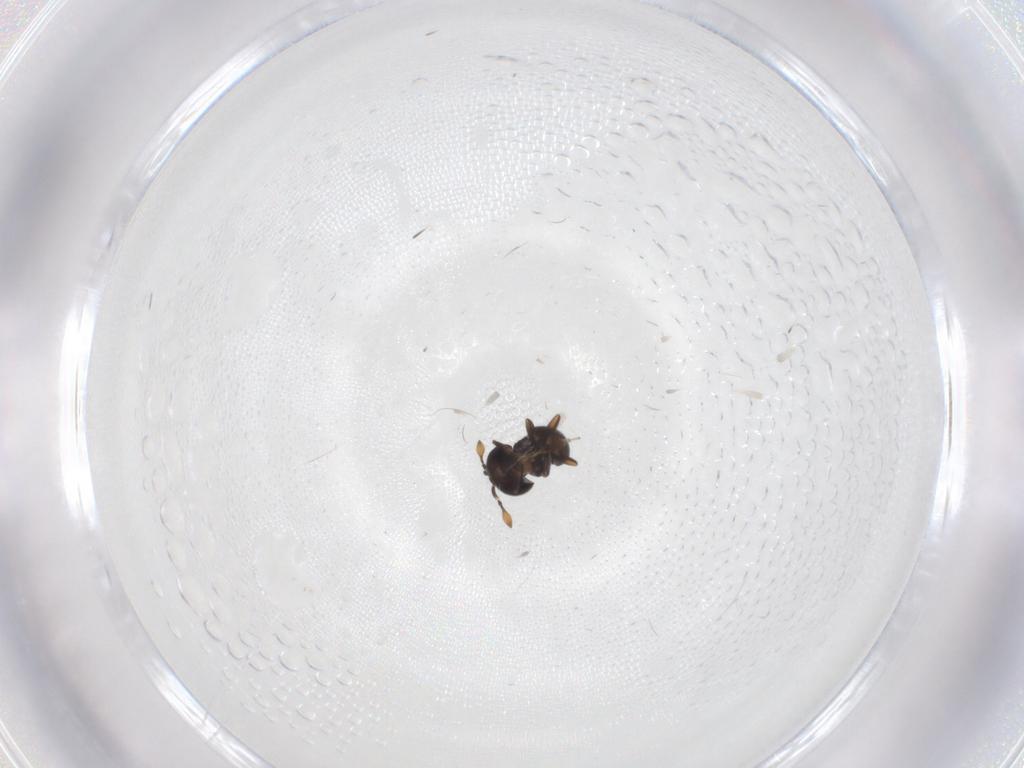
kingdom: Animalia
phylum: Arthropoda
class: Insecta
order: Hymenoptera
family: Scelionidae
